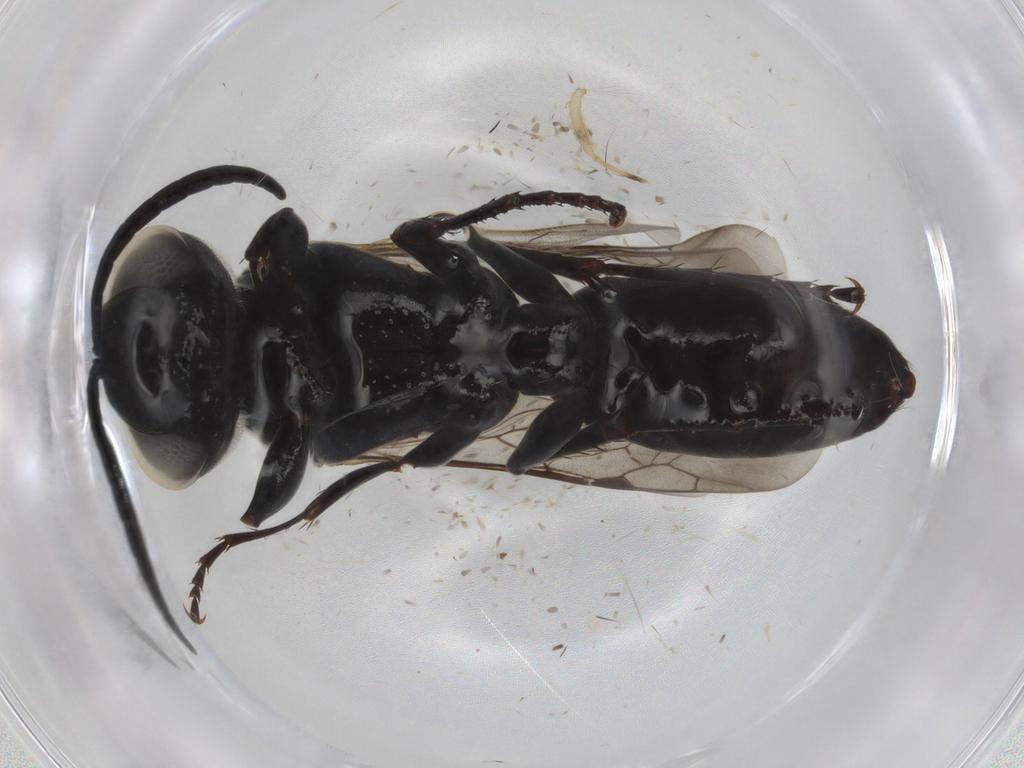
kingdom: Animalia
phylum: Arthropoda
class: Insecta
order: Hymenoptera
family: Crabronidae
